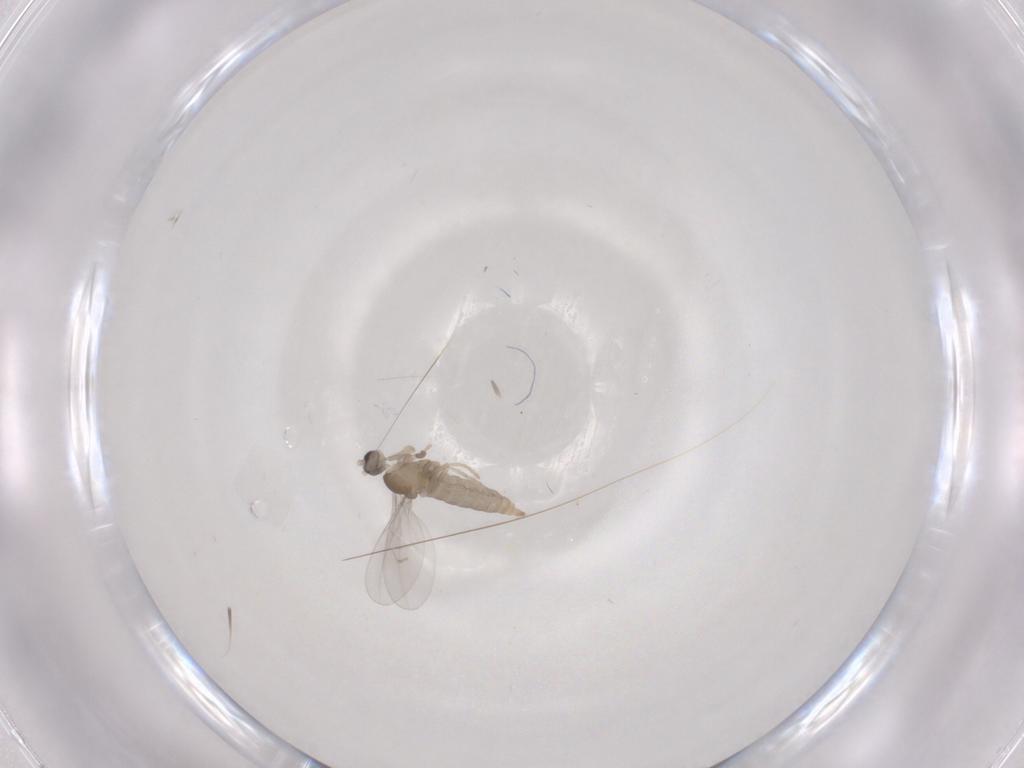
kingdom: Animalia
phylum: Arthropoda
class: Insecta
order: Diptera
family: Cecidomyiidae
